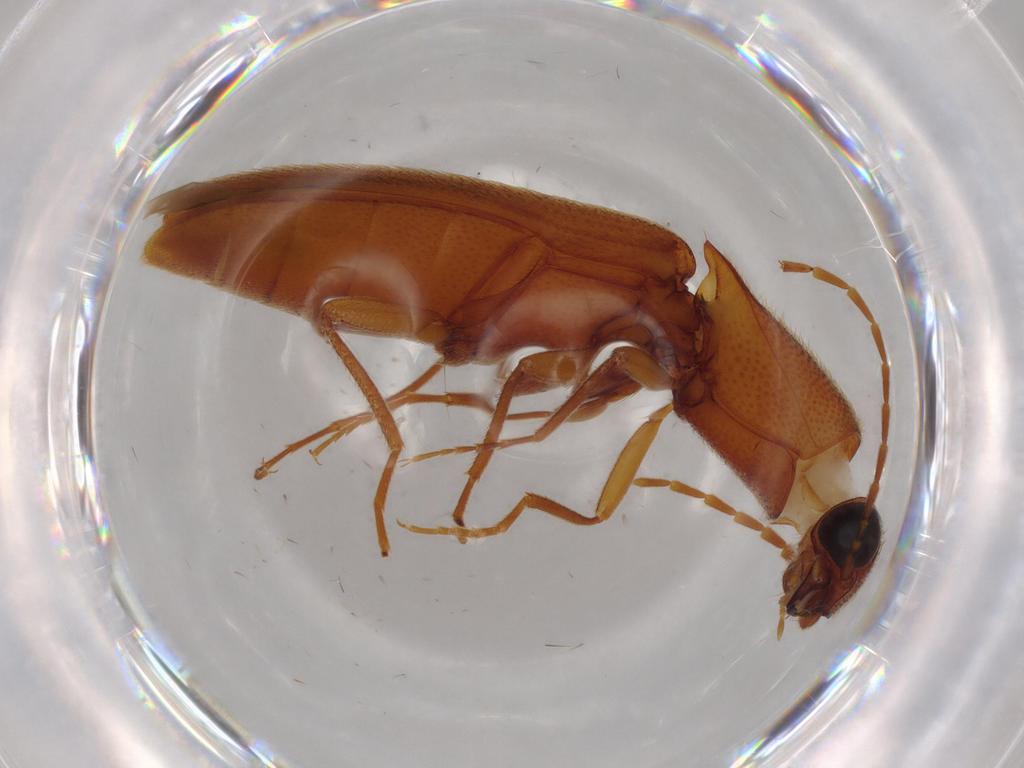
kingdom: Animalia
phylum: Arthropoda
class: Insecta
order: Coleoptera
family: Elateridae
